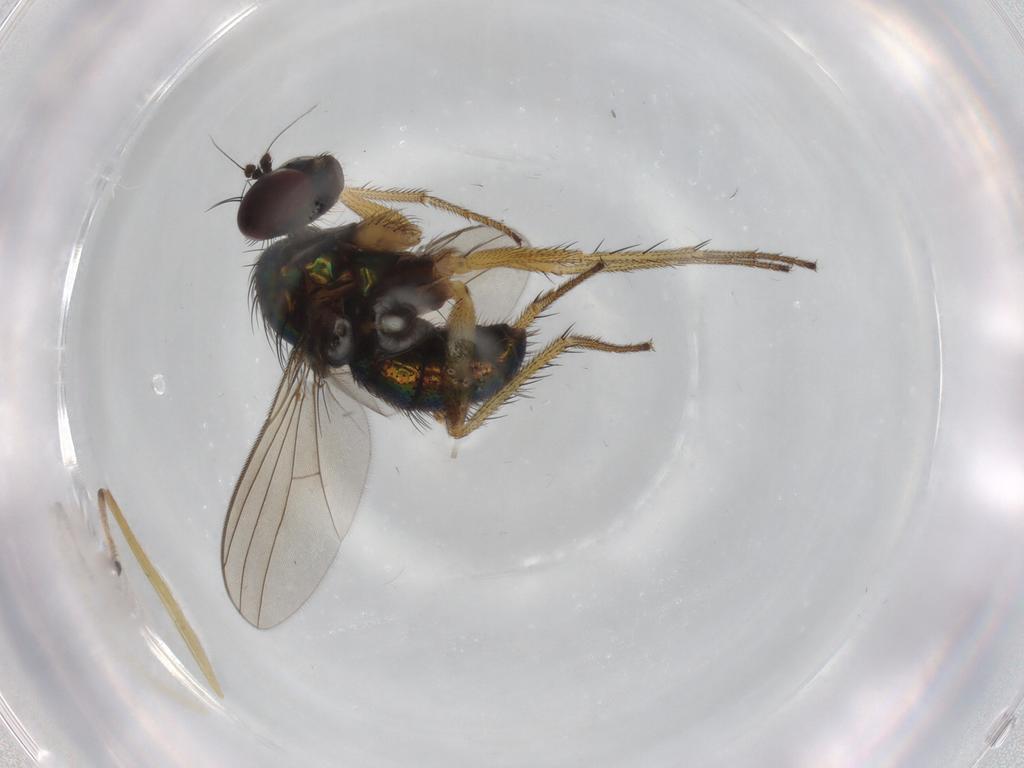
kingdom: Animalia
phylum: Arthropoda
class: Insecta
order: Diptera
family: Dolichopodidae
